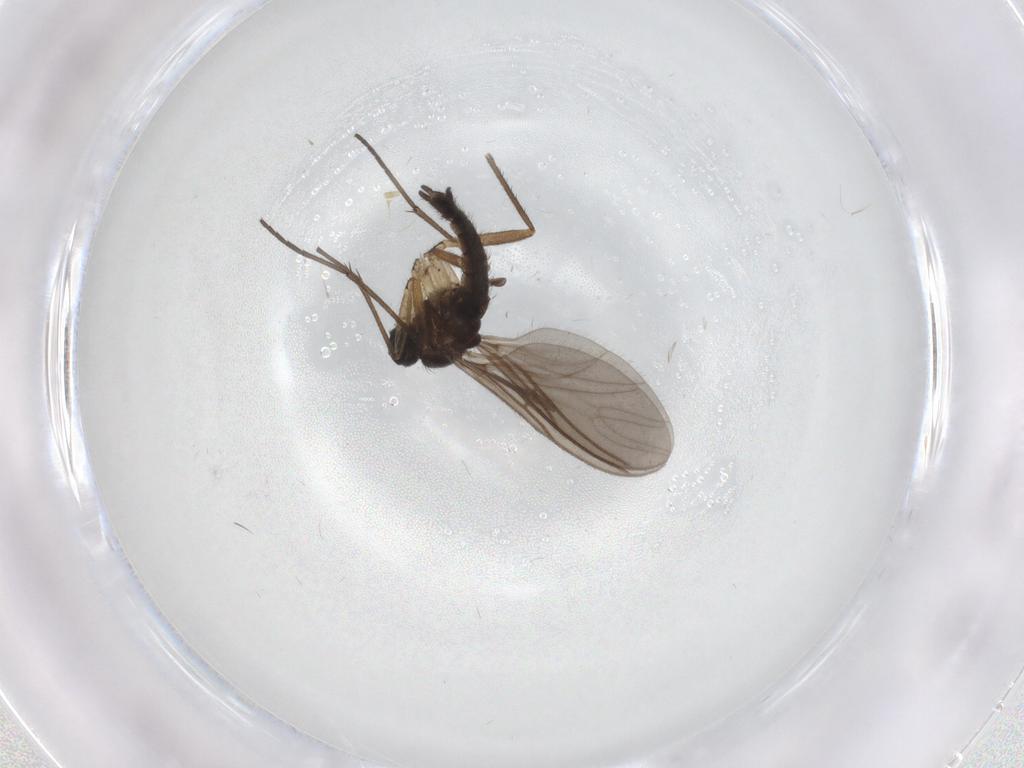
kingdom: Animalia
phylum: Arthropoda
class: Insecta
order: Diptera
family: Sciaridae
